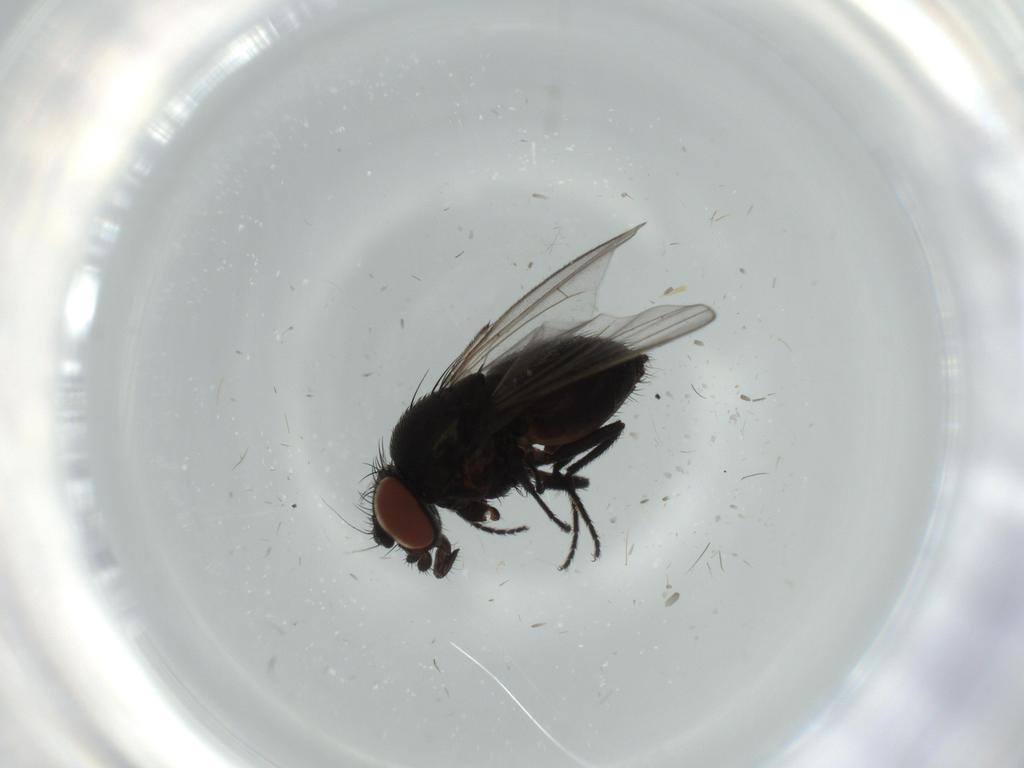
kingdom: Animalia
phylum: Arthropoda
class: Insecta
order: Diptera
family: Milichiidae
